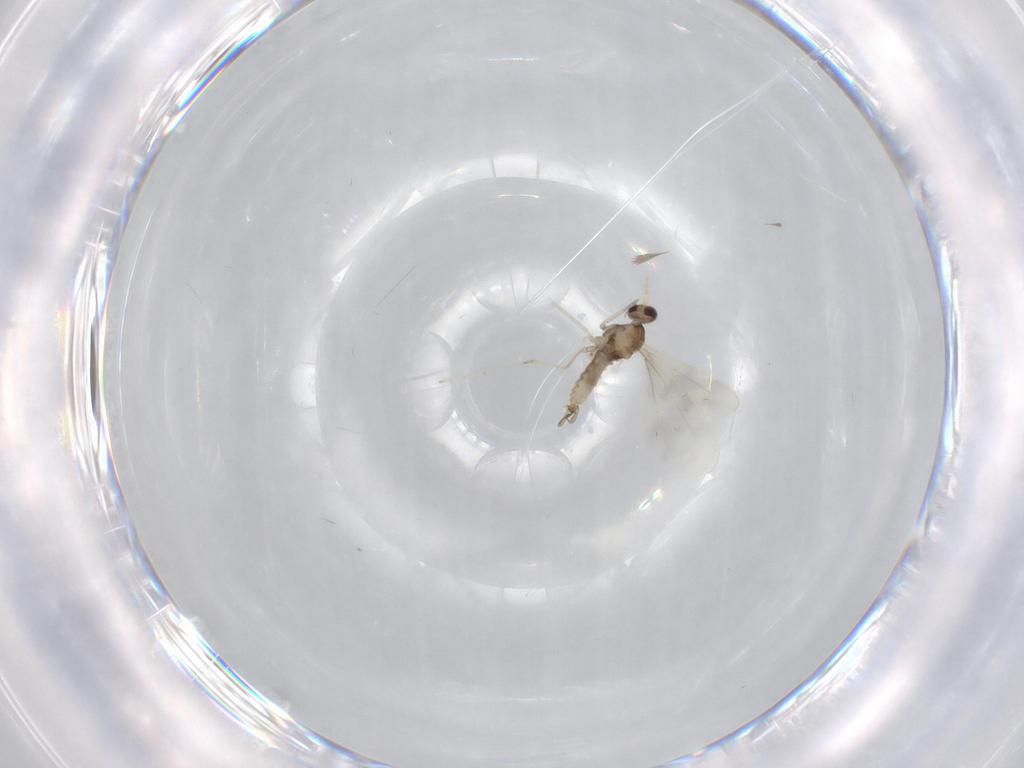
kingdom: Animalia
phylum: Arthropoda
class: Insecta
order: Diptera
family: Cecidomyiidae
